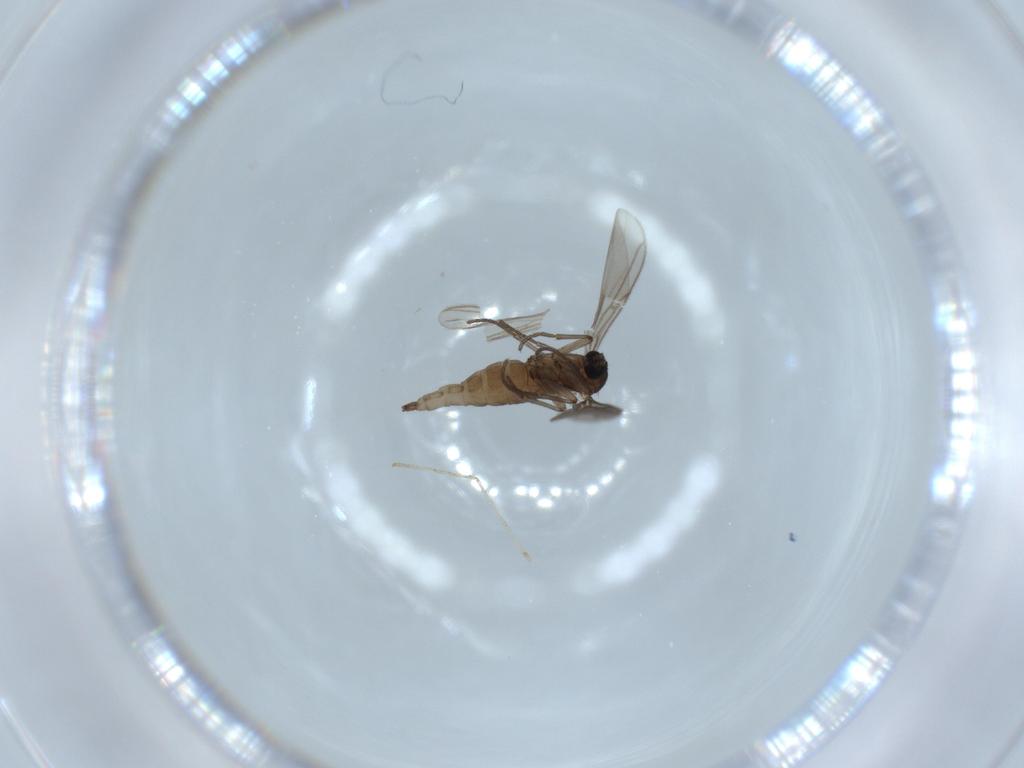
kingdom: Animalia
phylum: Arthropoda
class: Insecta
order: Diptera
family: Cecidomyiidae
